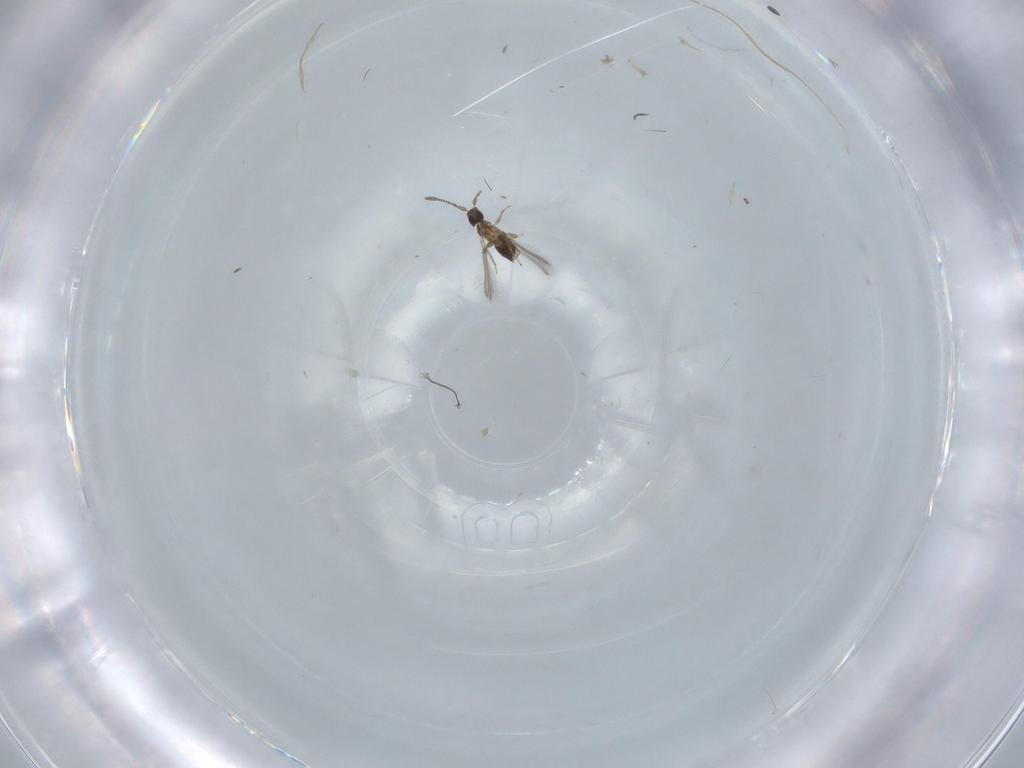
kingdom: Animalia
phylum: Arthropoda
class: Insecta
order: Hymenoptera
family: Mymaridae
